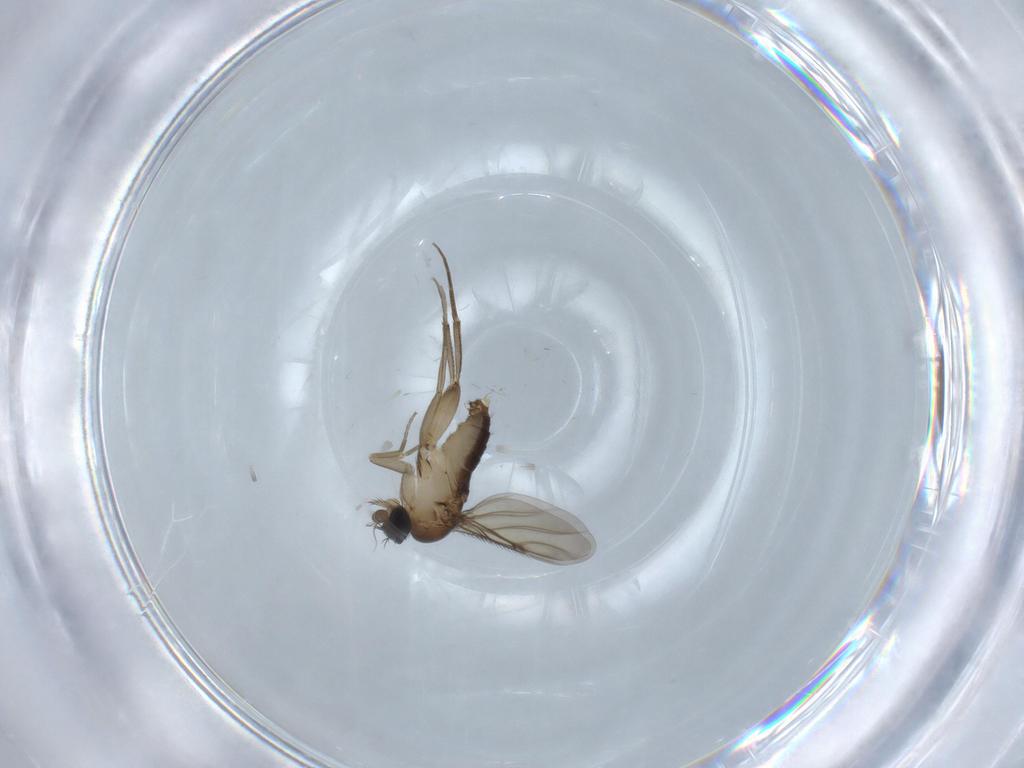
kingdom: Animalia
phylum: Arthropoda
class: Insecta
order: Diptera
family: Phoridae
